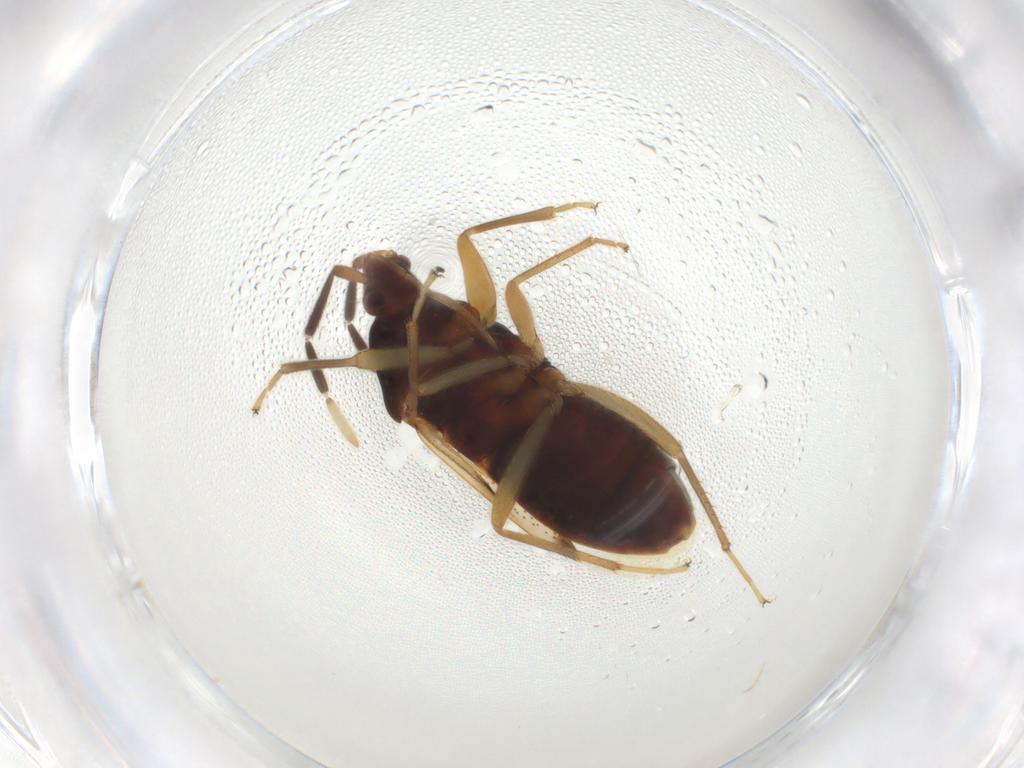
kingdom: Animalia
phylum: Arthropoda
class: Insecta
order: Hemiptera
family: Rhyparochromidae
